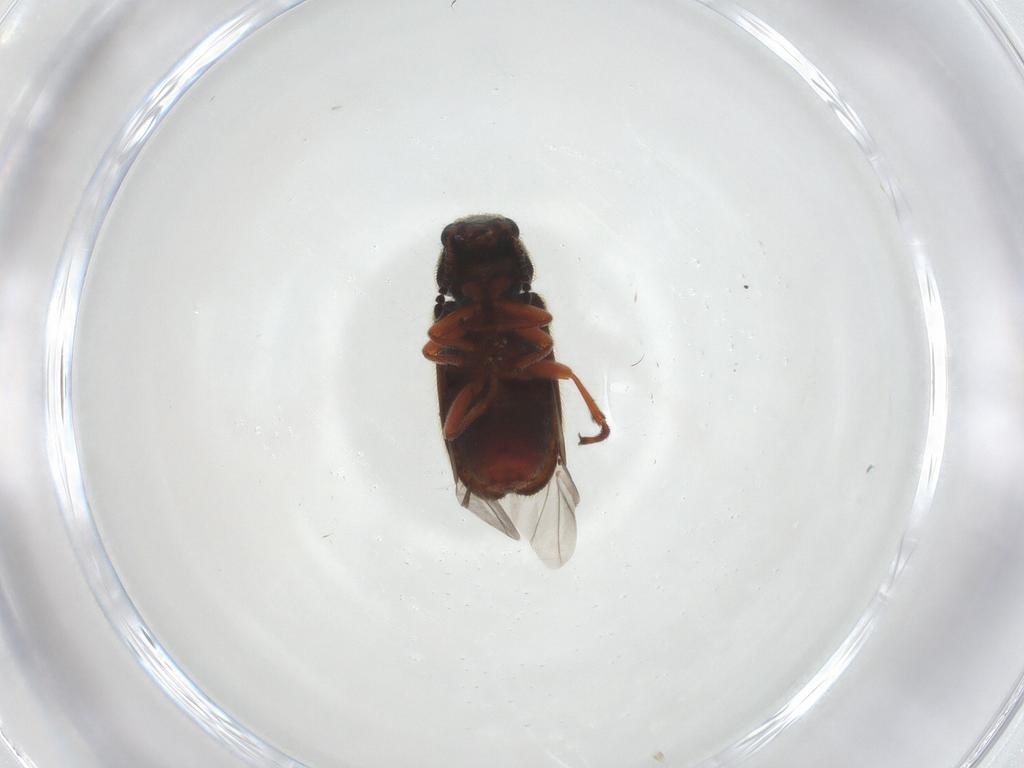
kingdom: Animalia
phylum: Arthropoda
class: Insecta
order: Coleoptera
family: Melyridae
